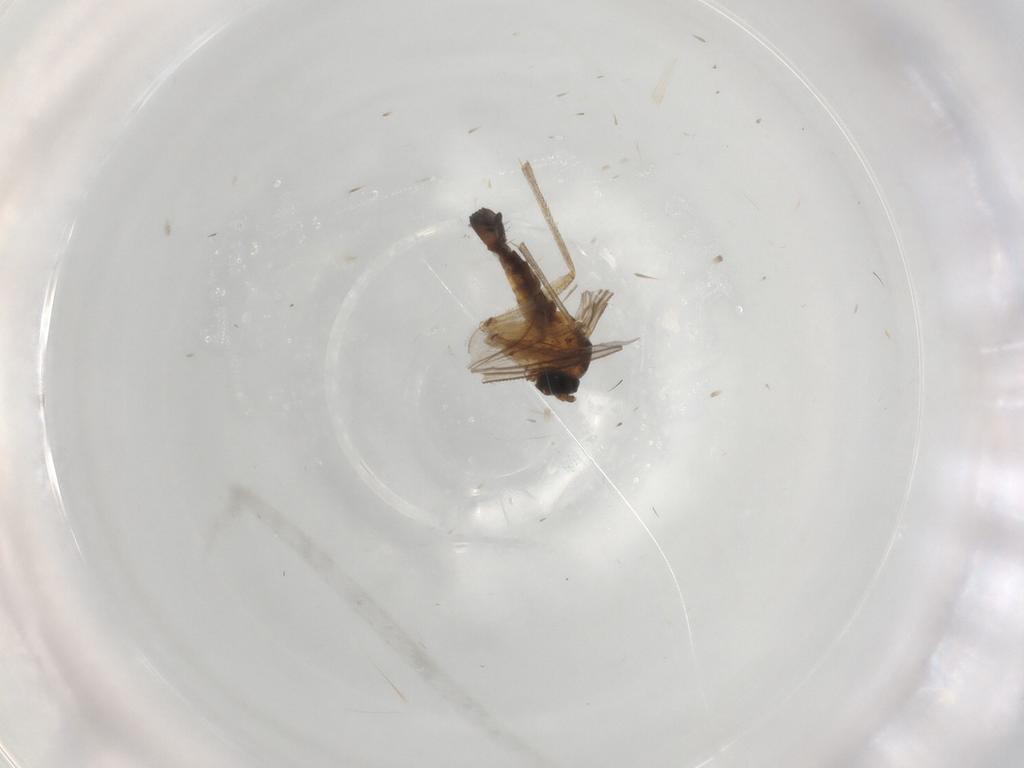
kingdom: Animalia
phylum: Arthropoda
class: Insecta
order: Diptera
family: Sciaridae
